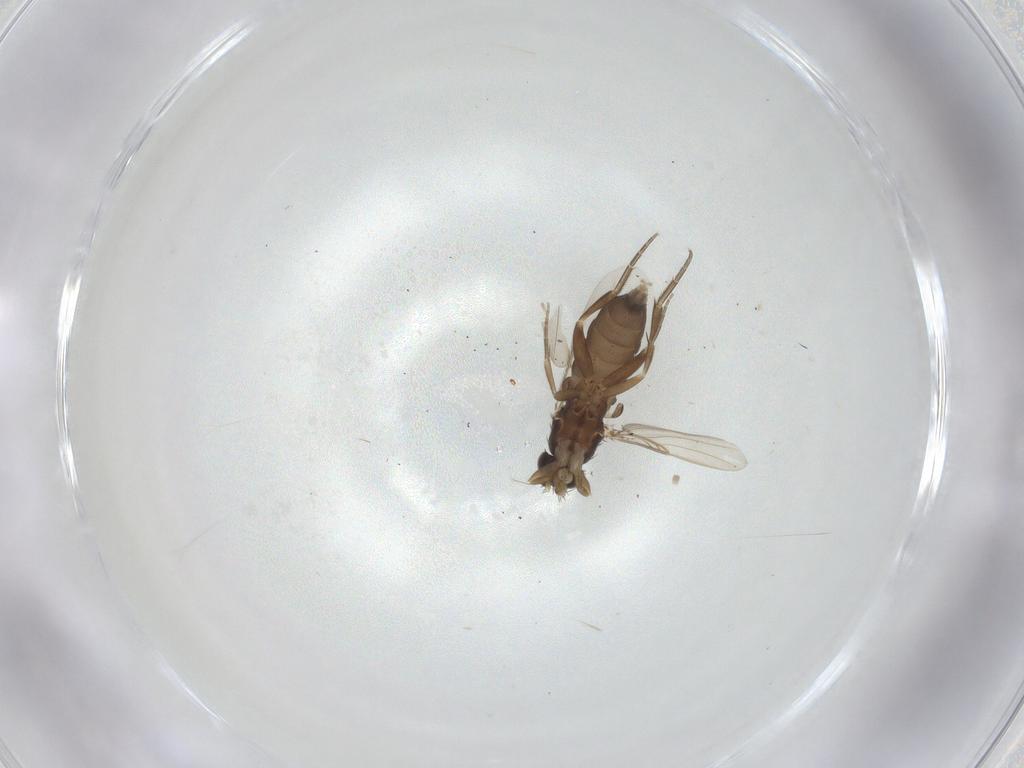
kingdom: Animalia
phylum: Arthropoda
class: Insecta
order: Diptera
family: Phoridae
